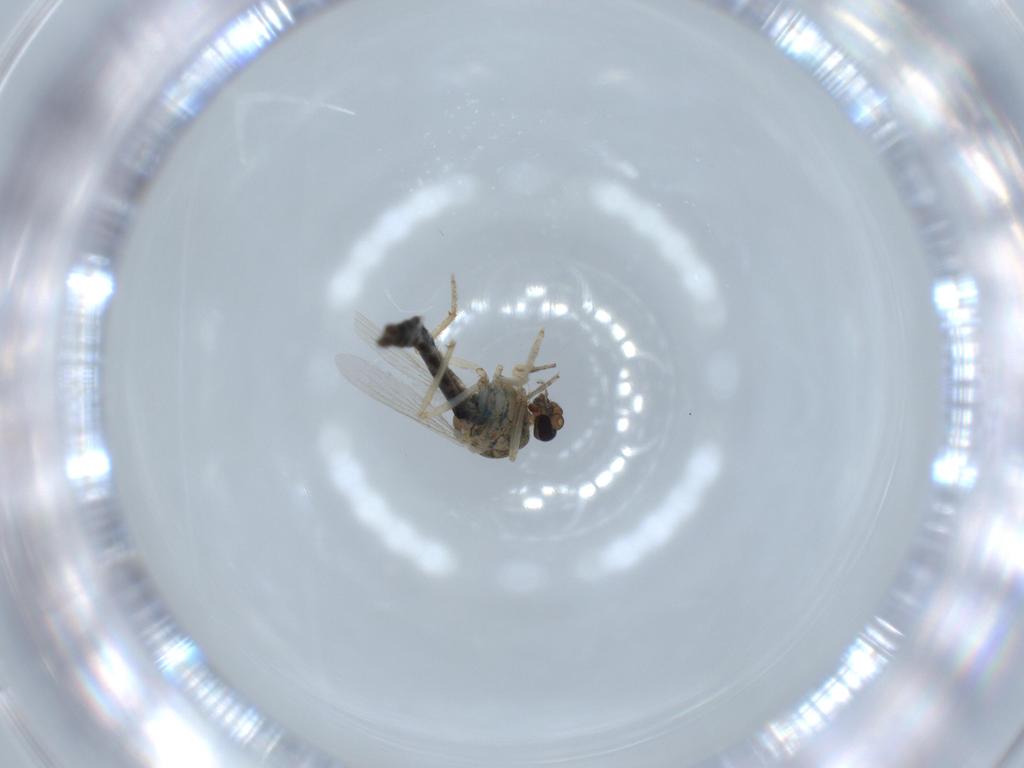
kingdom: Animalia
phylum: Arthropoda
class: Insecta
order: Diptera
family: Ceratopogonidae
